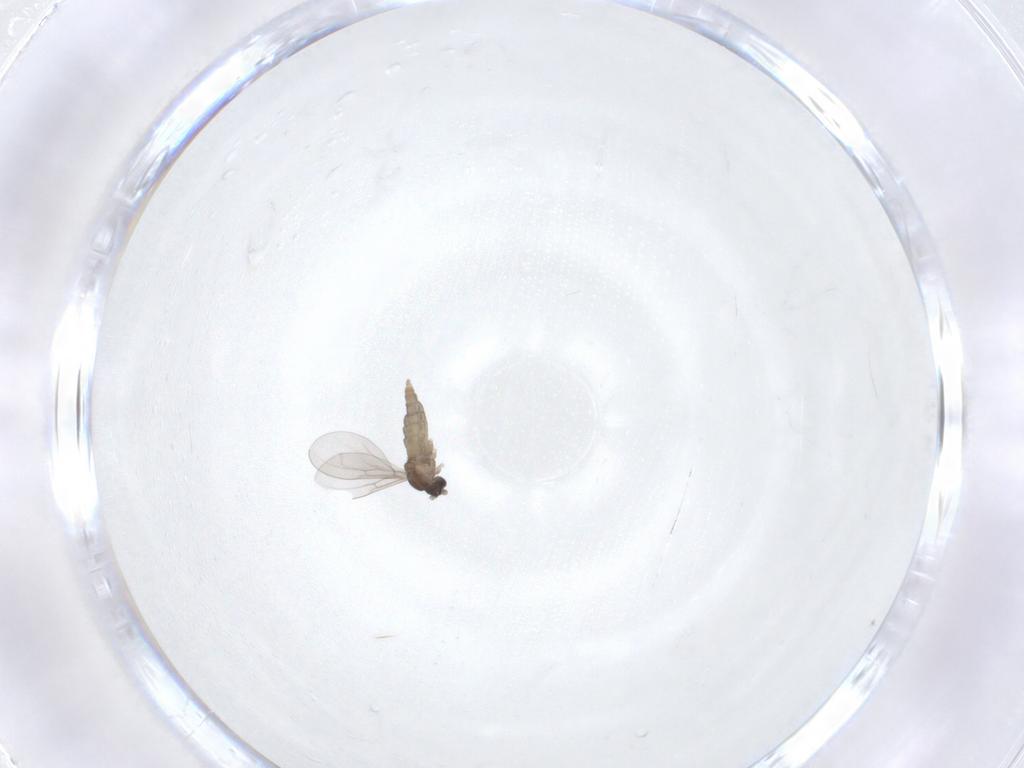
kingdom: Animalia
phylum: Arthropoda
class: Insecta
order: Diptera
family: Cecidomyiidae
